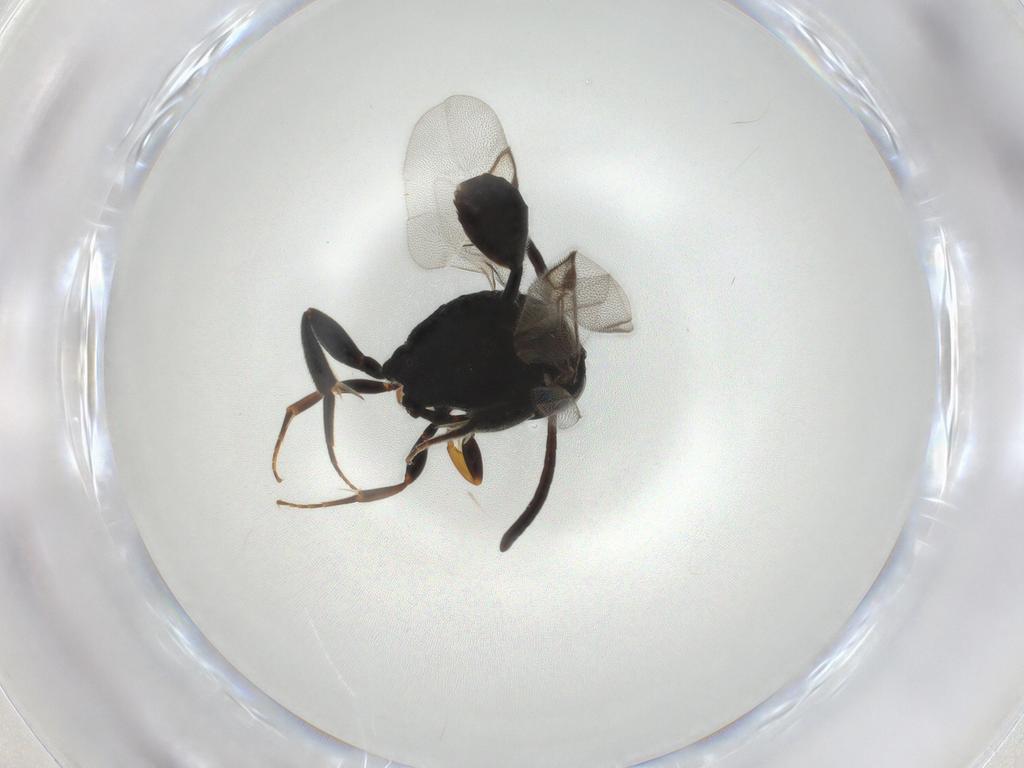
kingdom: Animalia
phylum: Arthropoda
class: Insecta
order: Hymenoptera
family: Evaniidae
